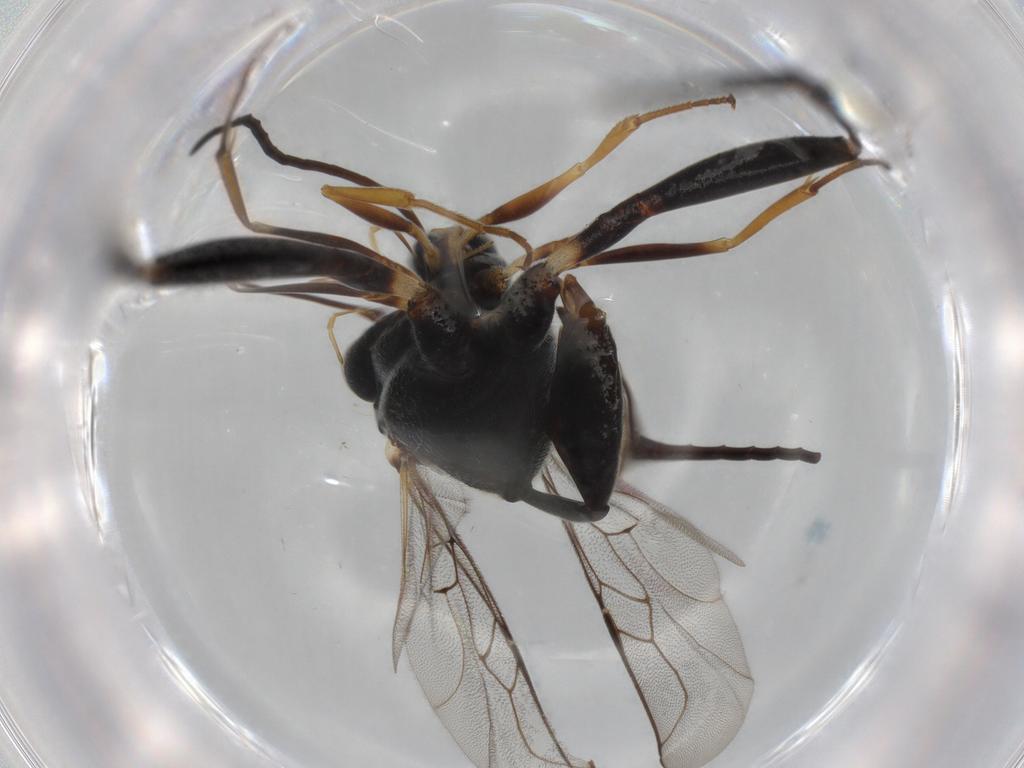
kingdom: Animalia
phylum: Arthropoda
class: Insecta
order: Hymenoptera
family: Evaniidae
